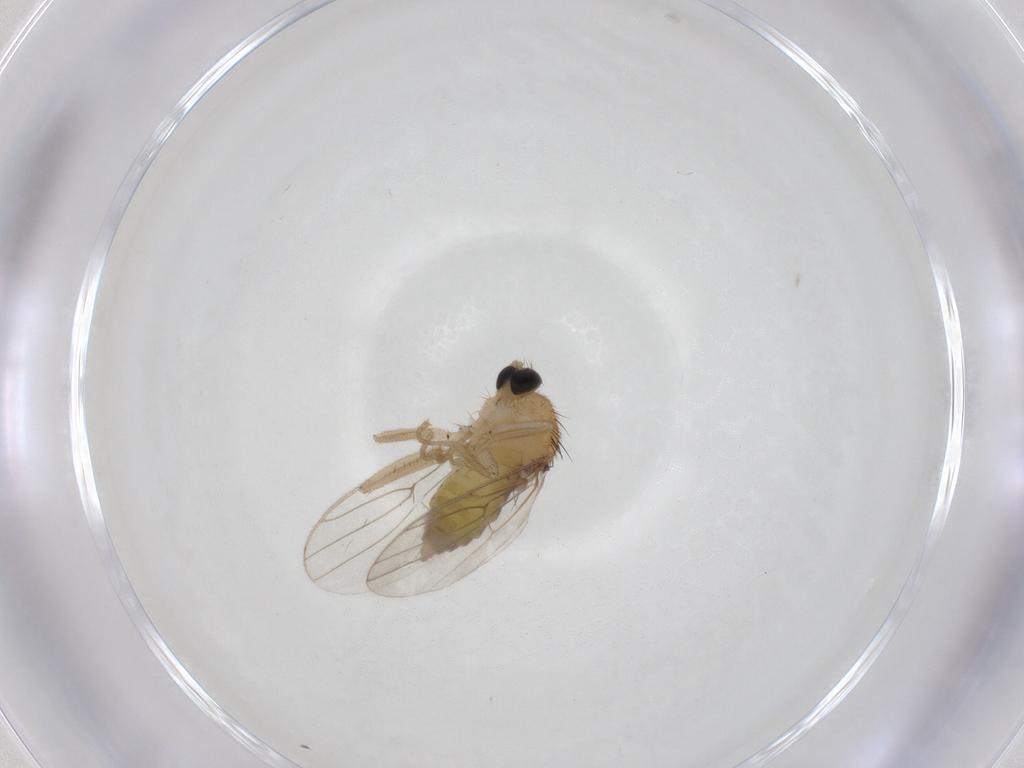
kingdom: Animalia
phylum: Arthropoda
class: Insecta
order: Diptera
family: Hybotidae
